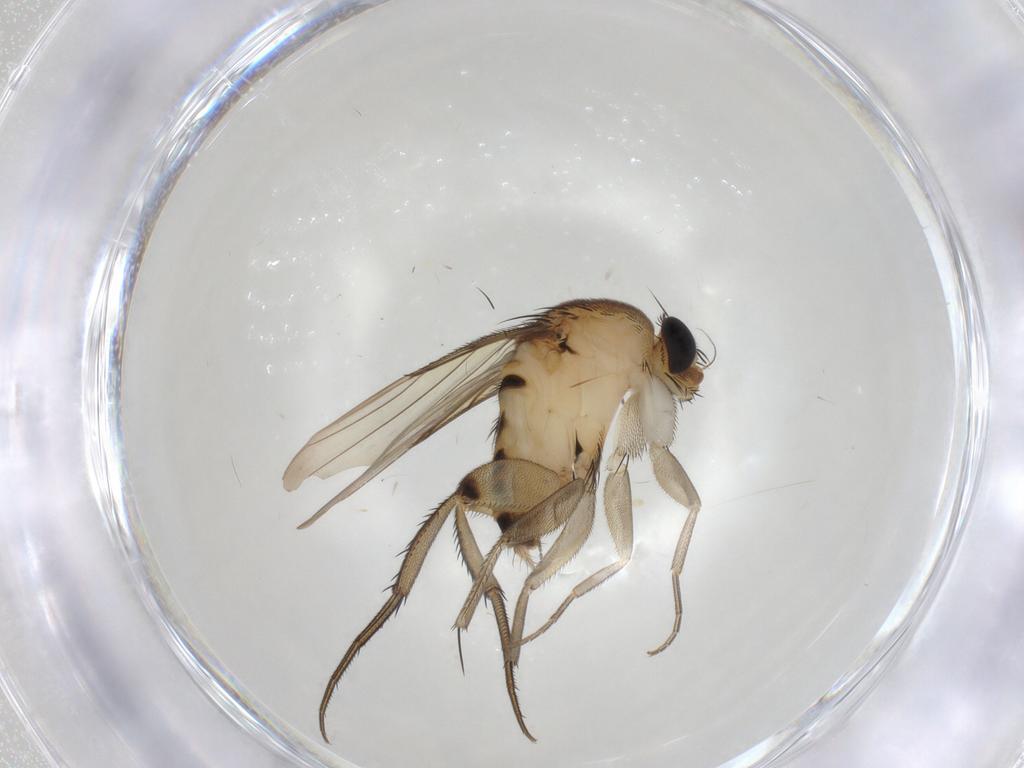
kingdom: Animalia
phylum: Arthropoda
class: Insecta
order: Diptera
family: Phoridae
